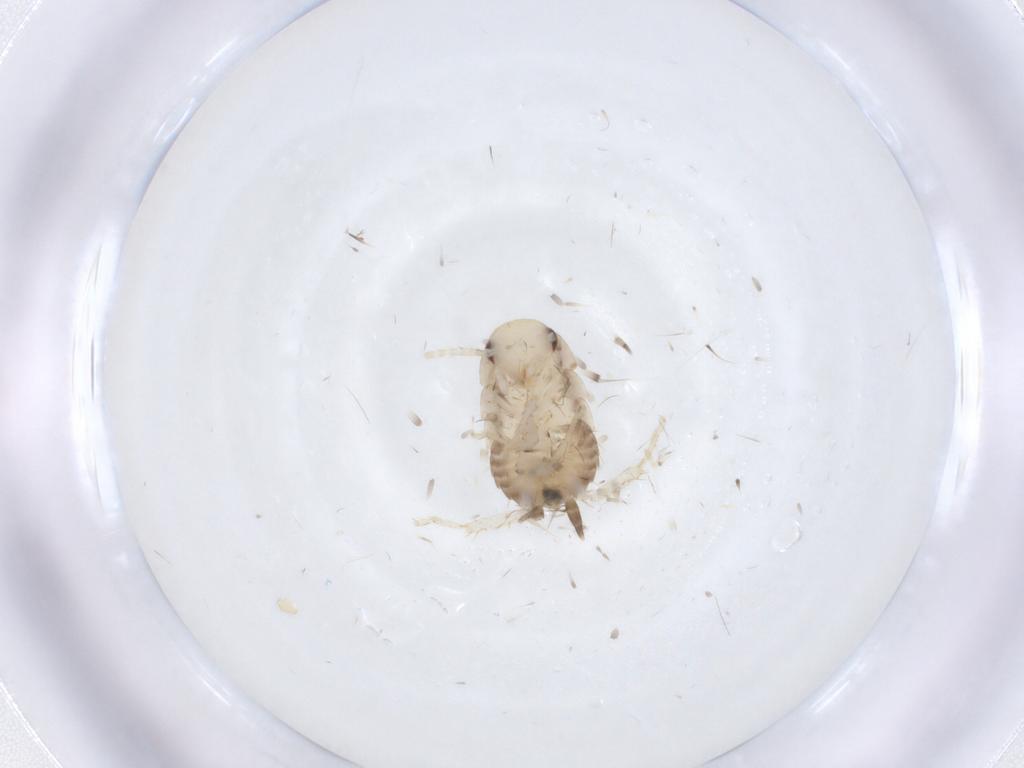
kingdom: Animalia
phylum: Arthropoda
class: Insecta
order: Blattodea
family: Ectobiidae
